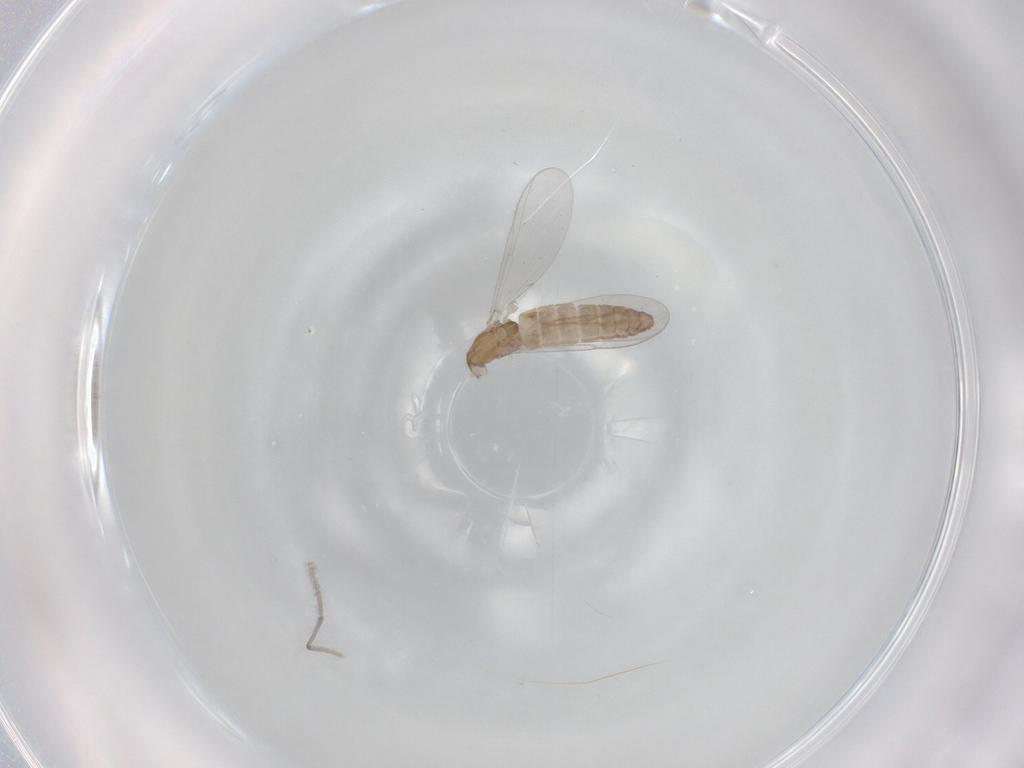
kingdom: Animalia
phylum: Arthropoda
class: Insecta
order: Diptera
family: Chironomidae
